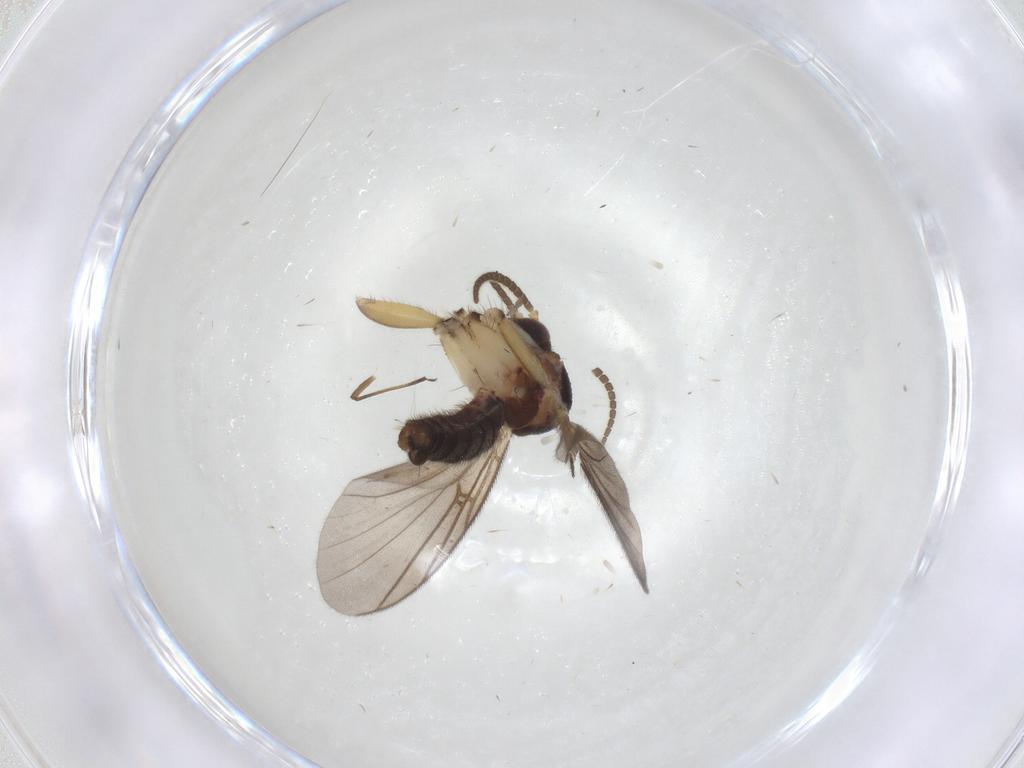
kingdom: Animalia
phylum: Arthropoda
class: Insecta
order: Diptera
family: Mycetophilidae
